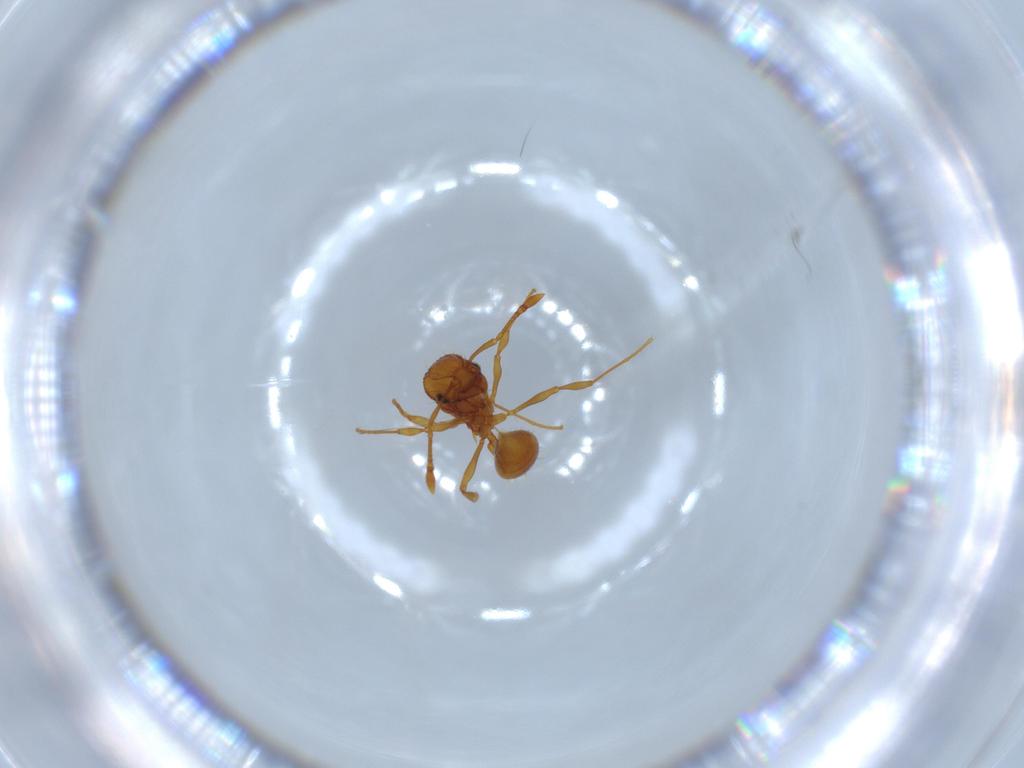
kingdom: Animalia
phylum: Arthropoda
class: Insecta
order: Hymenoptera
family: Formicidae
